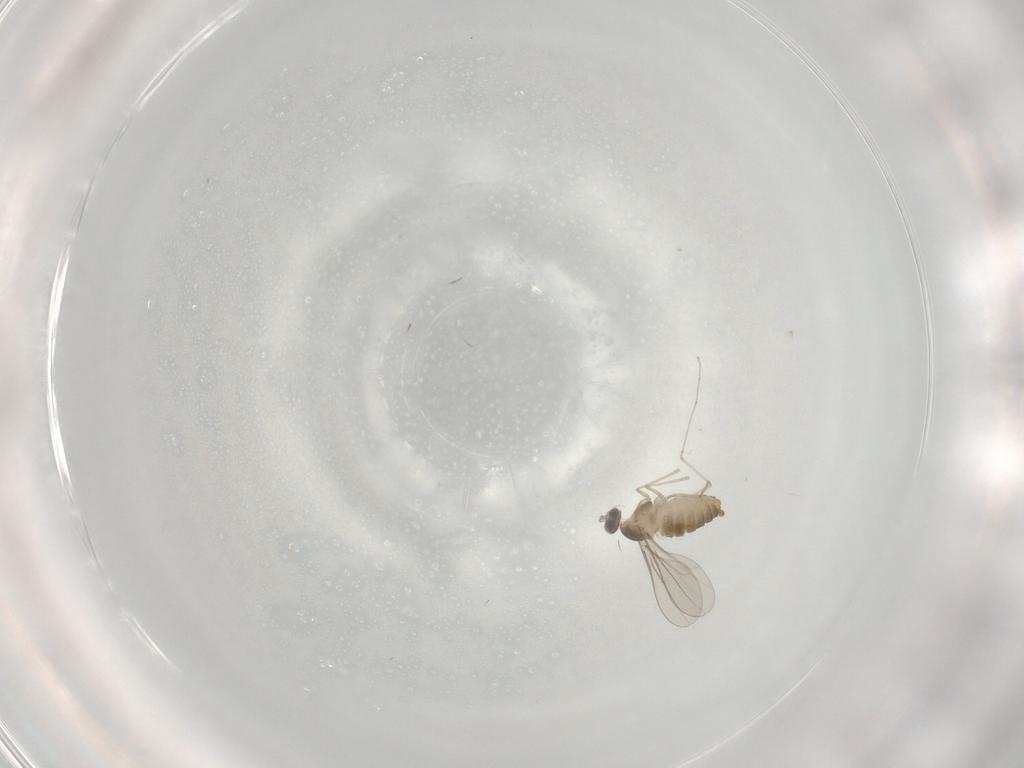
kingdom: Animalia
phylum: Arthropoda
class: Insecta
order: Diptera
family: Cecidomyiidae
